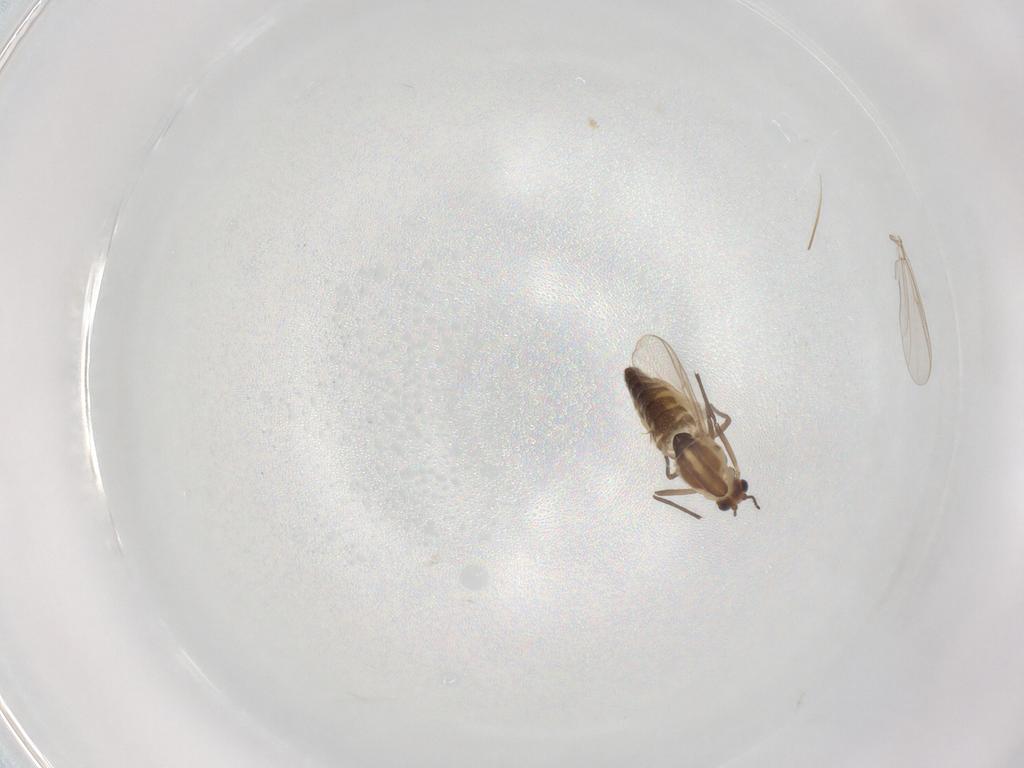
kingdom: Animalia
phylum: Arthropoda
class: Insecta
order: Diptera
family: Chironomidae
